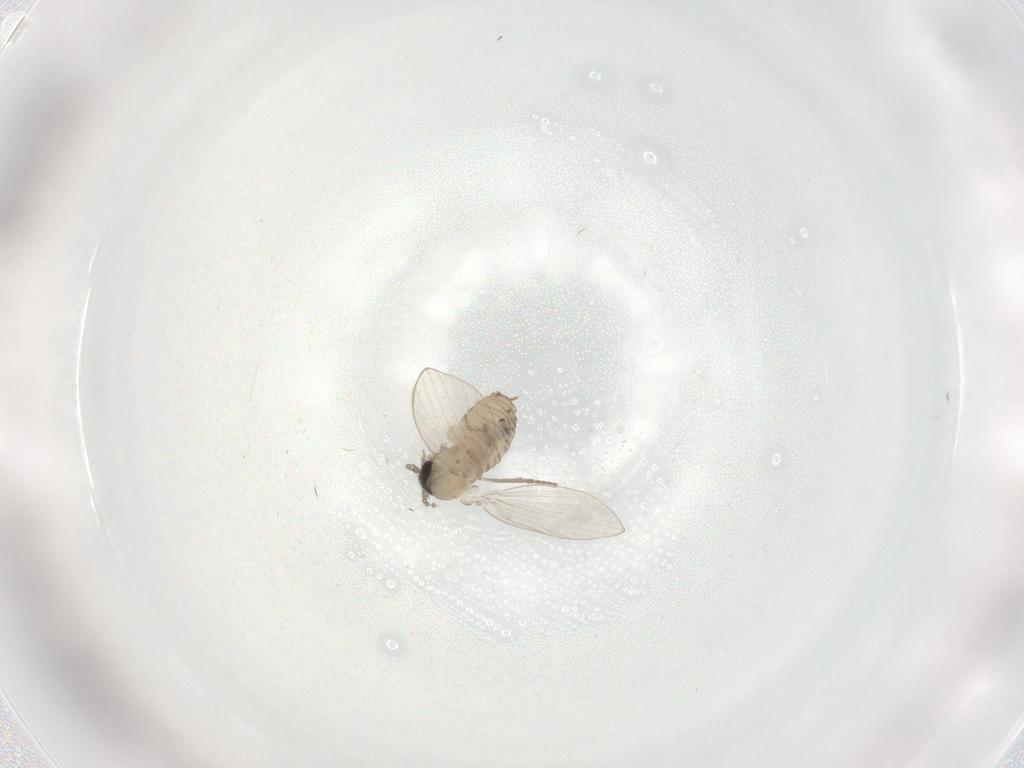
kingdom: Animalia
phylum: Arthropoda
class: Insecta
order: Diptera
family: Psychodidae
